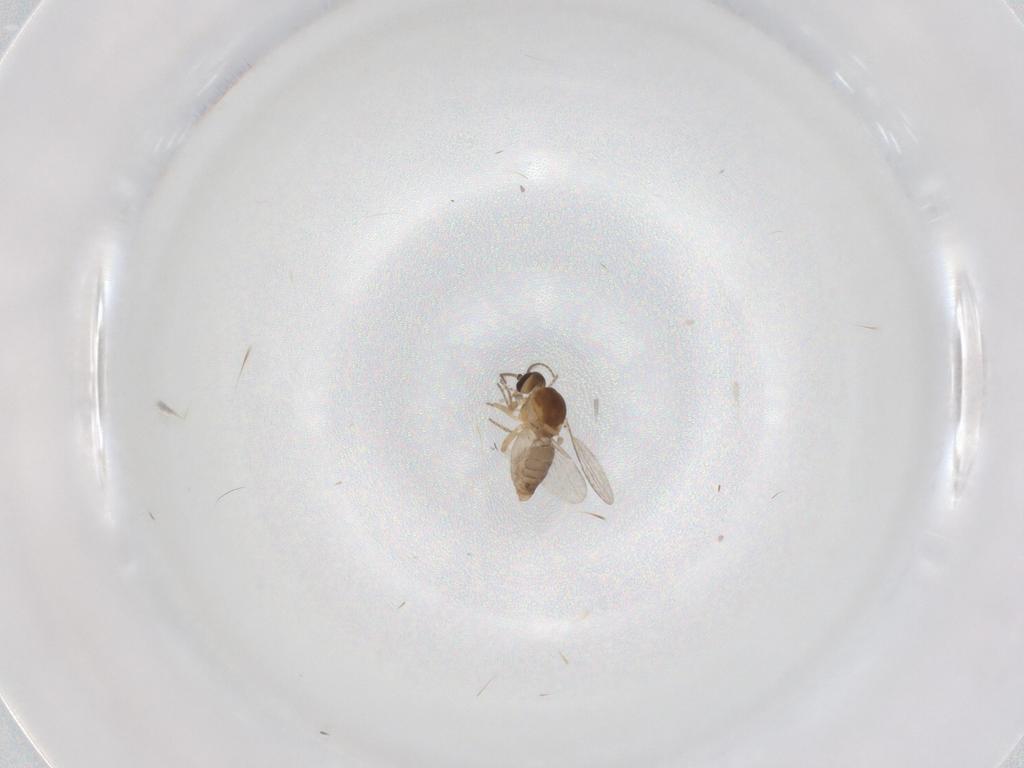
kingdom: Animalia
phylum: Arthropoda
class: Insecta
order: Diptera
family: Ceratopogonidae
